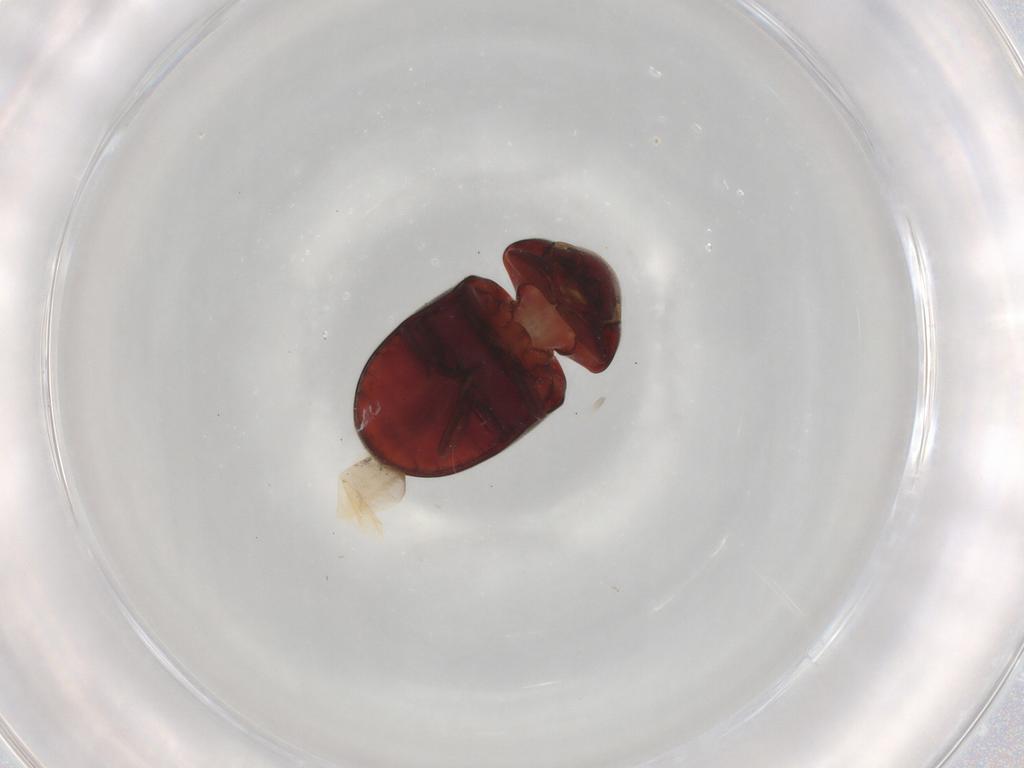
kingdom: Animalia
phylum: Arthropoda
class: Insecta
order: Coleoptera
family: Ptinidae
